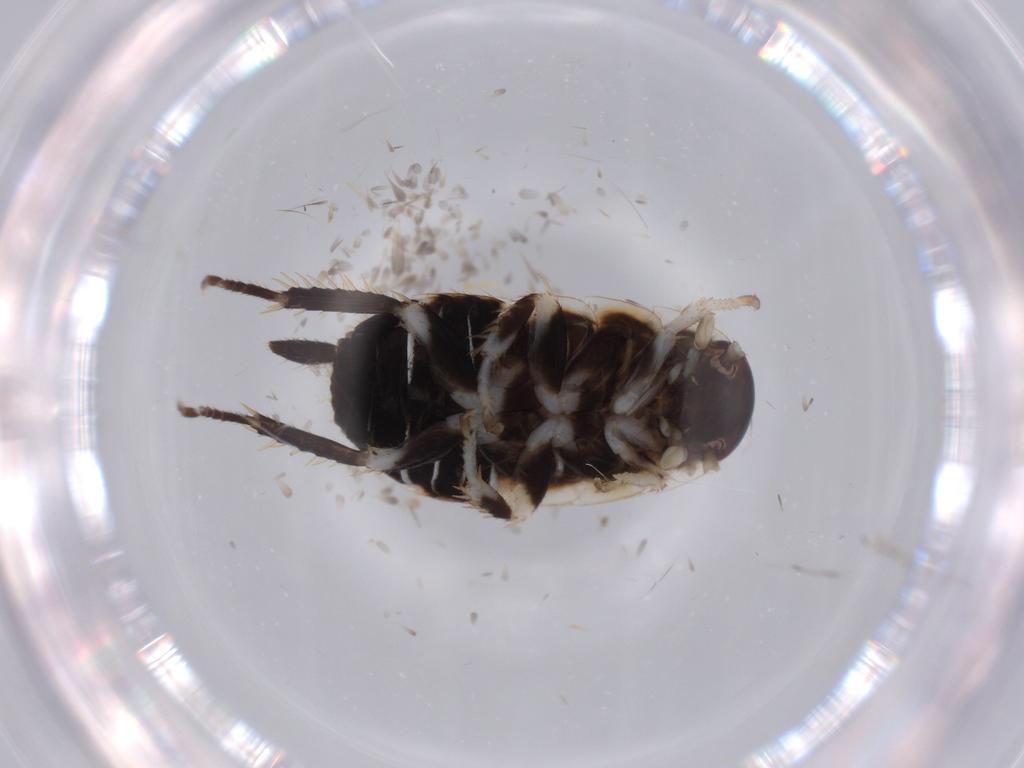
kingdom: Animalia
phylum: Arthropoda
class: Insecta
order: Blattodea
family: Ectobiidae
